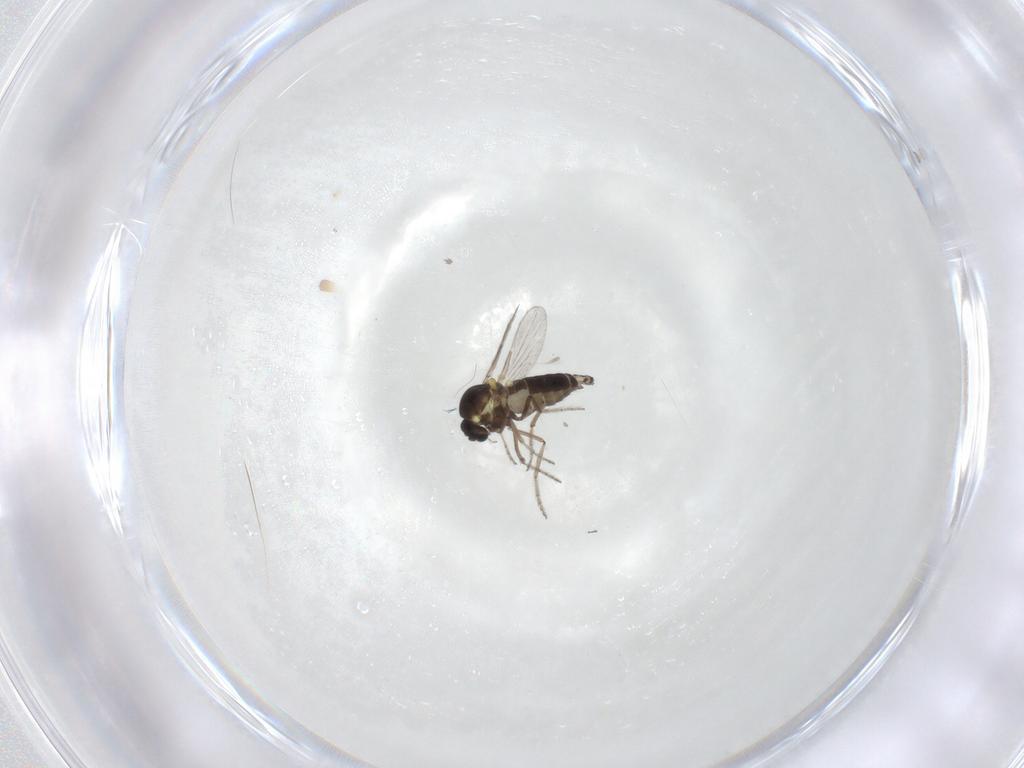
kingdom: Animalia
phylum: Arthropoda
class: Insecta
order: Diptera
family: Ceratopogonidae
